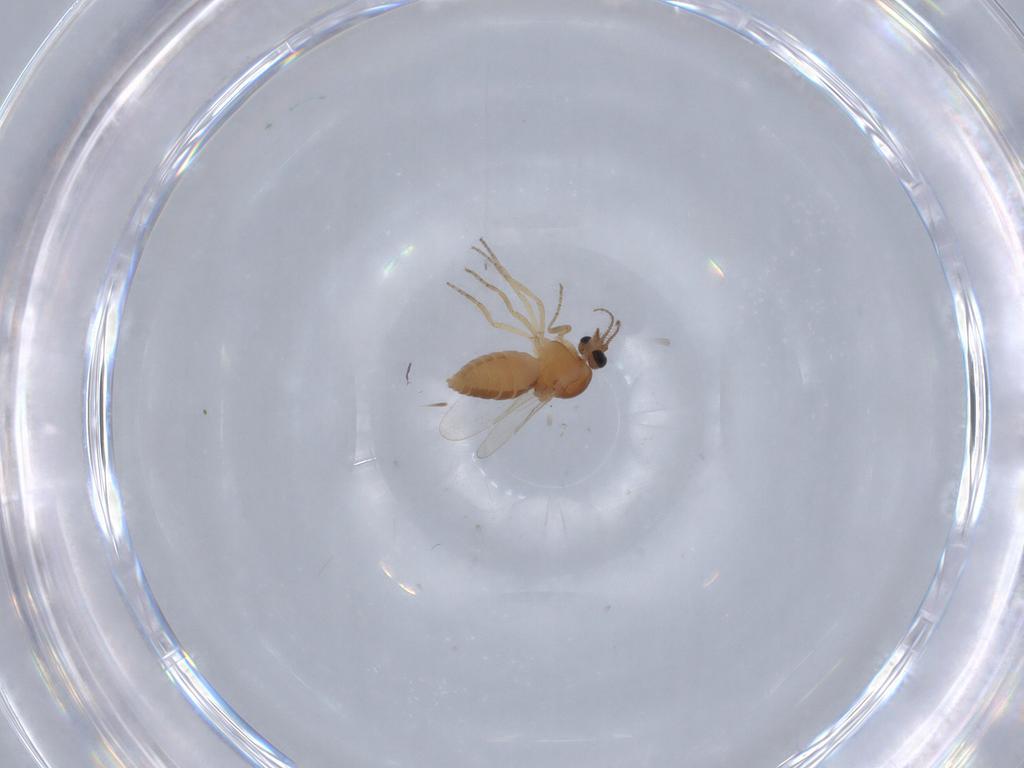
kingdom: Animalia
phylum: Arthropoda
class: Insecta
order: Diptera
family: Ceratopogonidae
